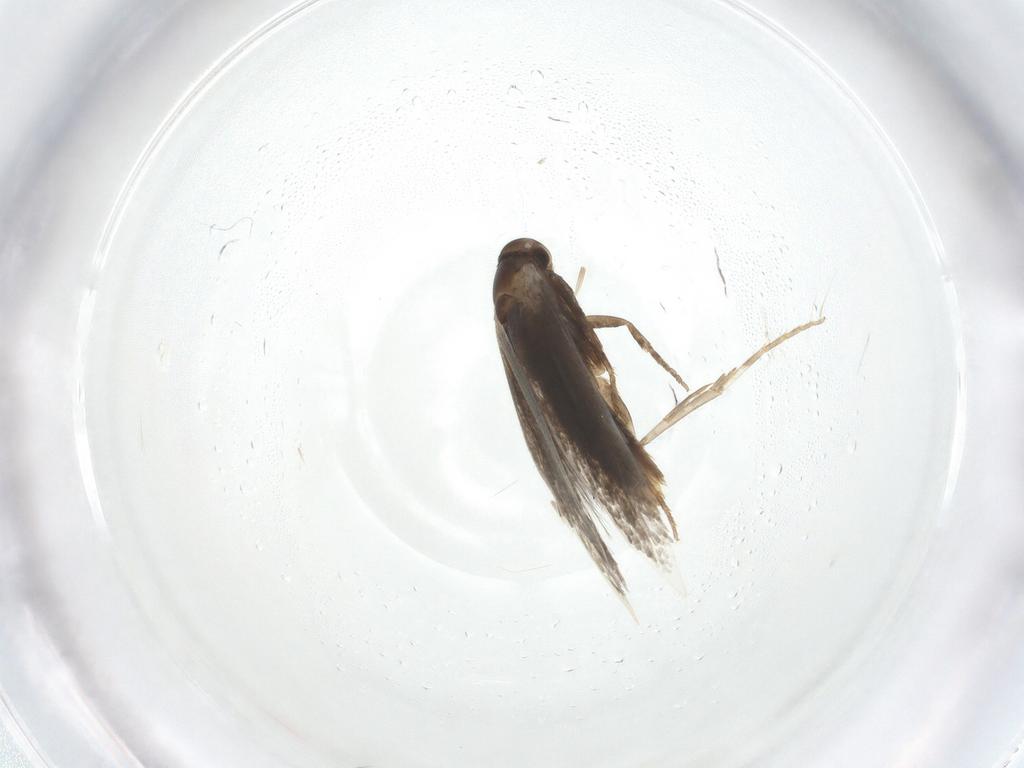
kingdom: Animalia
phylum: Arthropoda
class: Insecta
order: Lepidoptera
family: Elachistidae
